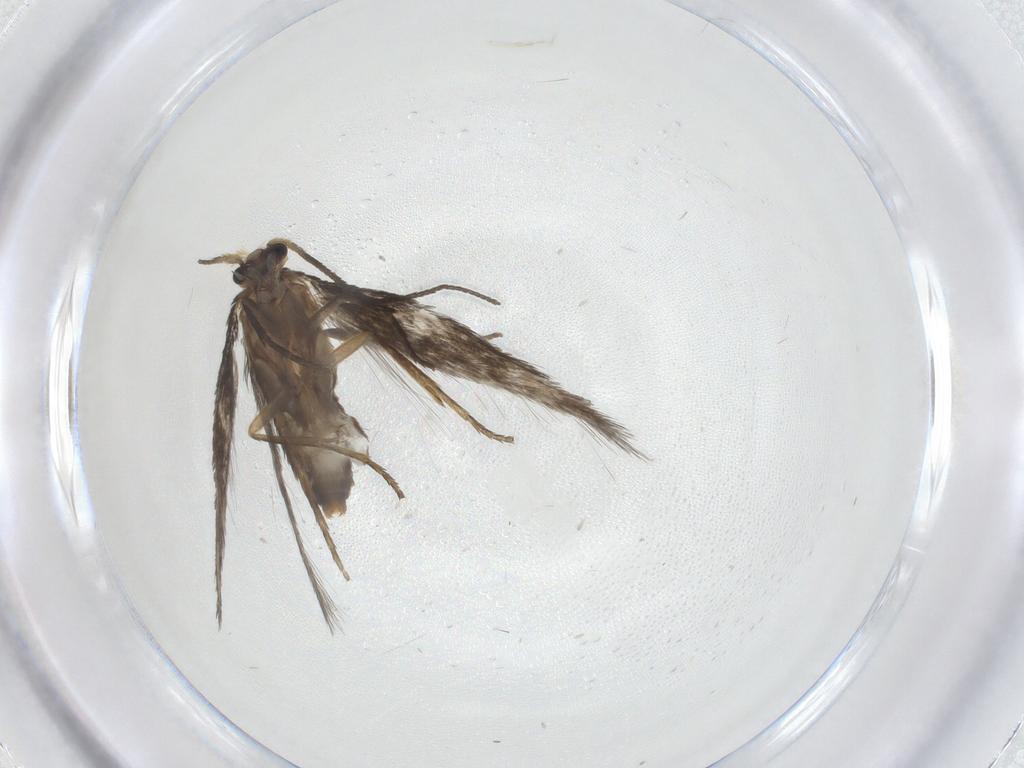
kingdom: Animalia
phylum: Arthropoda
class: Insecta
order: Lepidoptera
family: Nepticulidae
